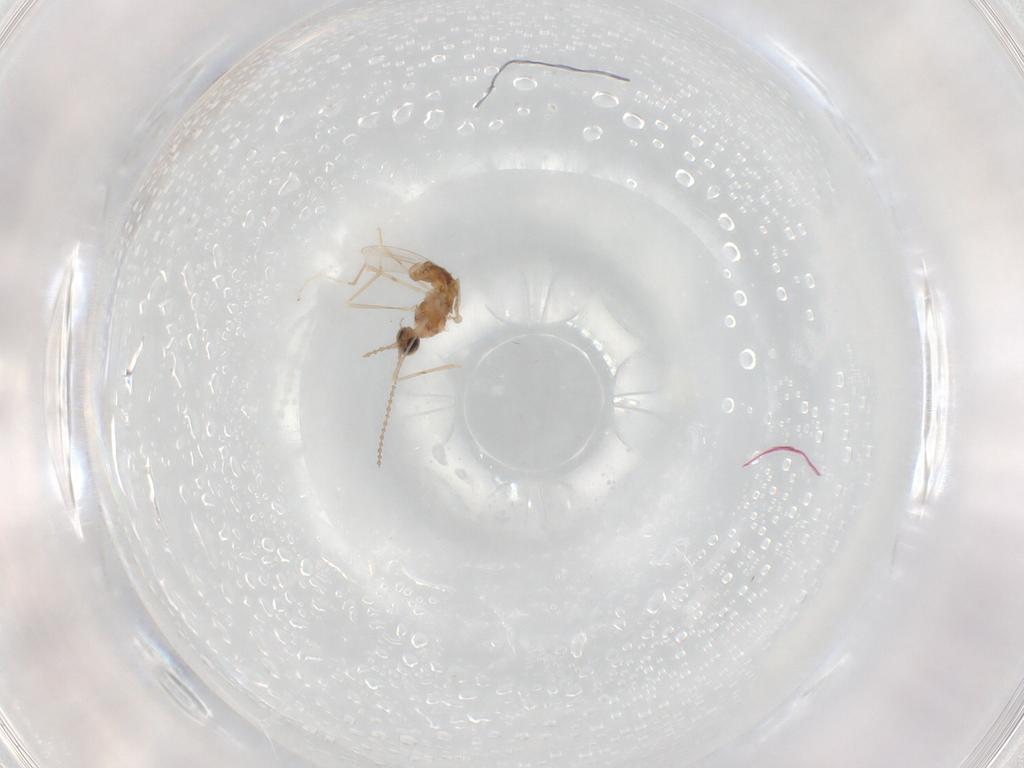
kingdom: Animalia
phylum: Arthropoda
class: Insecta
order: Diptera
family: Cecidomyiidae
